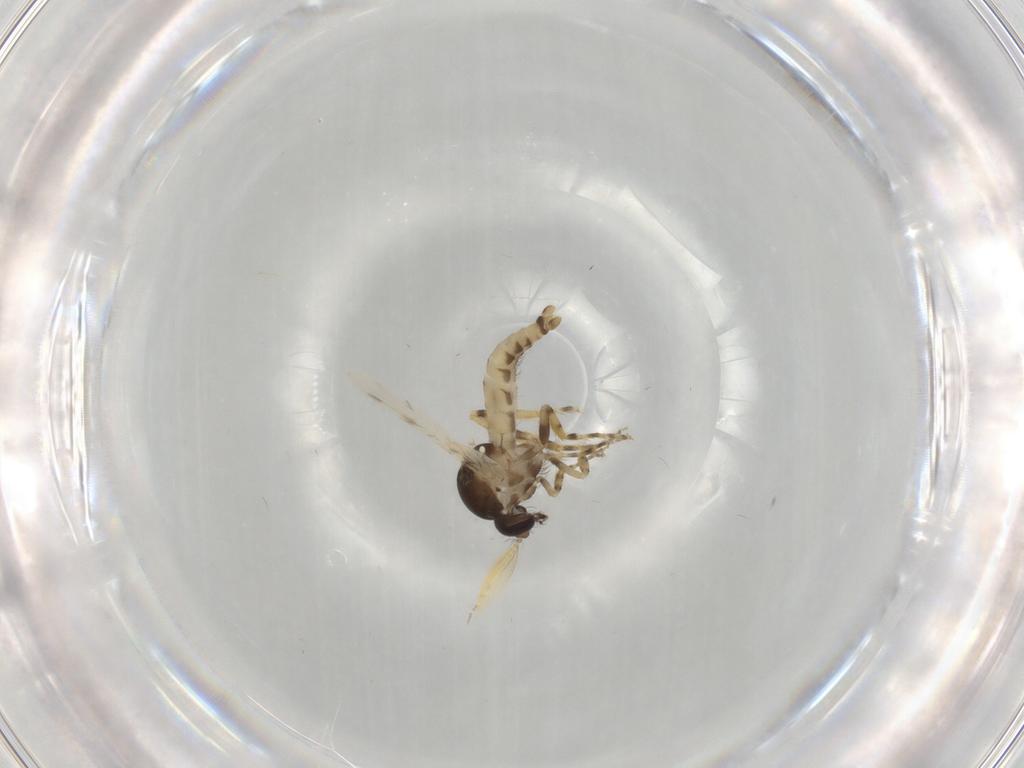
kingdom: Animalia
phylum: Arthropoda
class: Insecta
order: Diptera
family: Ceratopogonidae
